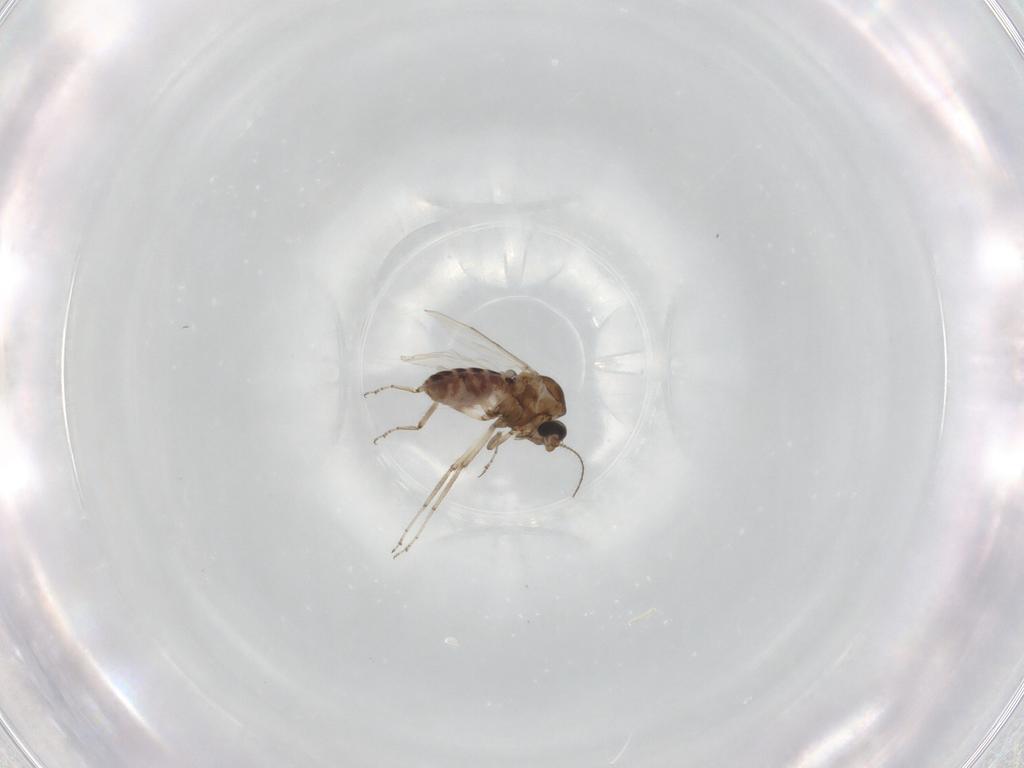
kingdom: Animalia
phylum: Arthropoda
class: Insecta
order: Diptera
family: Ceratopogonidae
